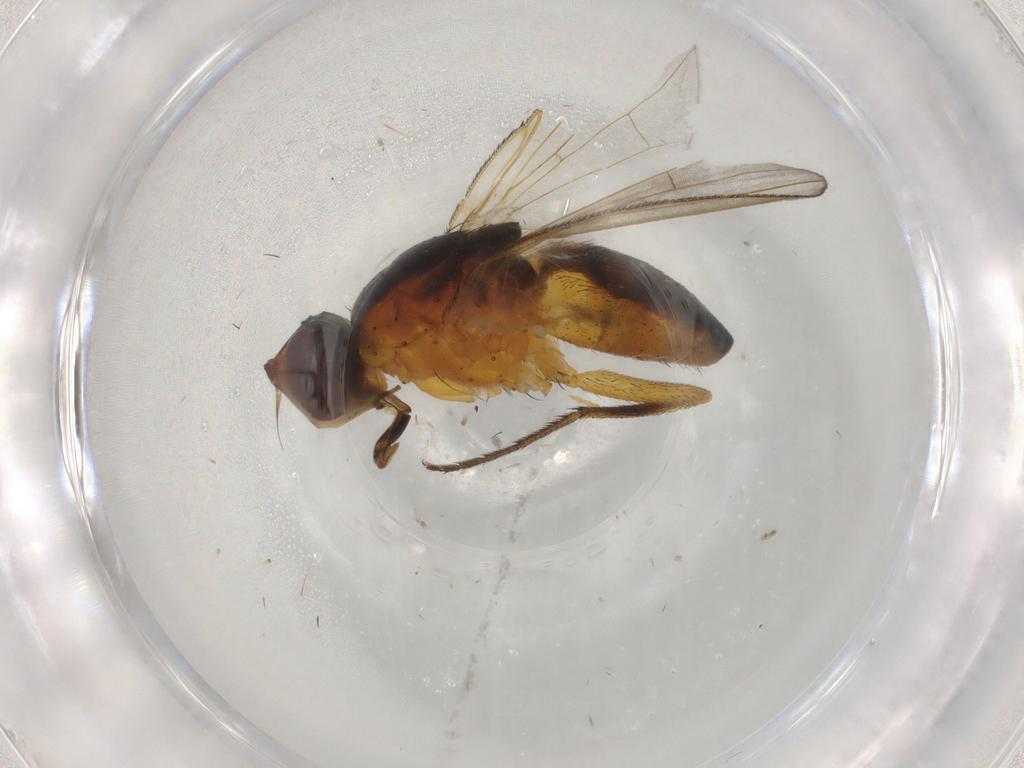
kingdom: Animalia
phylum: Arthropoda
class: Insecta
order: Diptera
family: Muscidae
